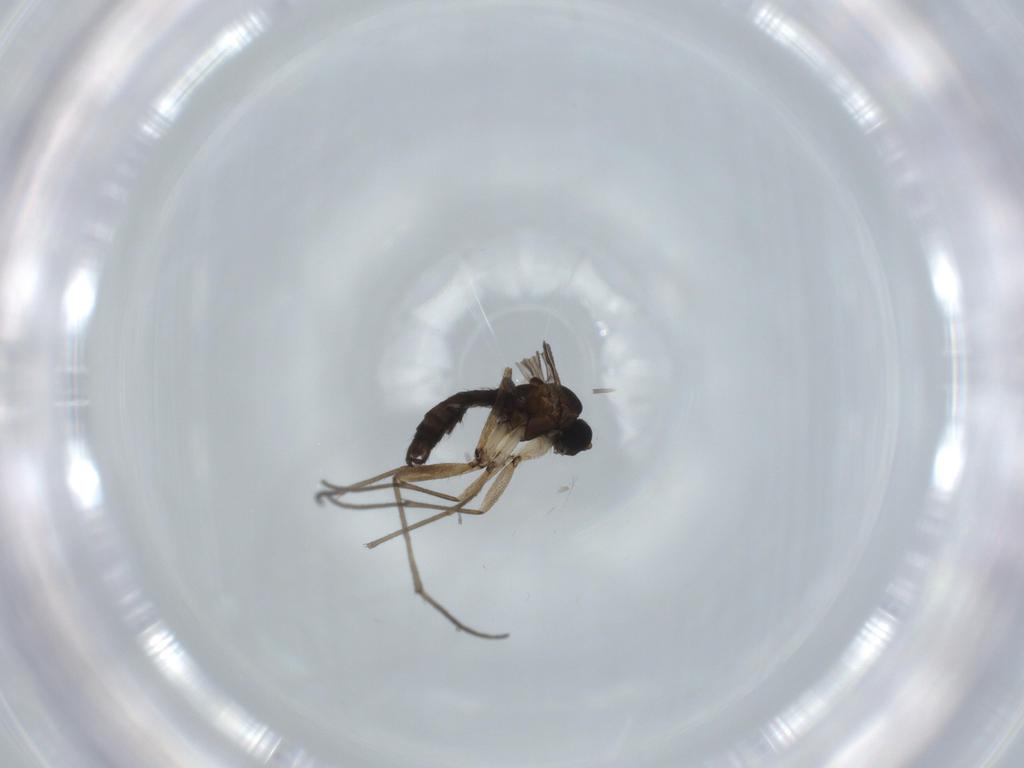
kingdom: Animalia
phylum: Arthropoda
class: Insecta
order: Diptera
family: Sciaridae
